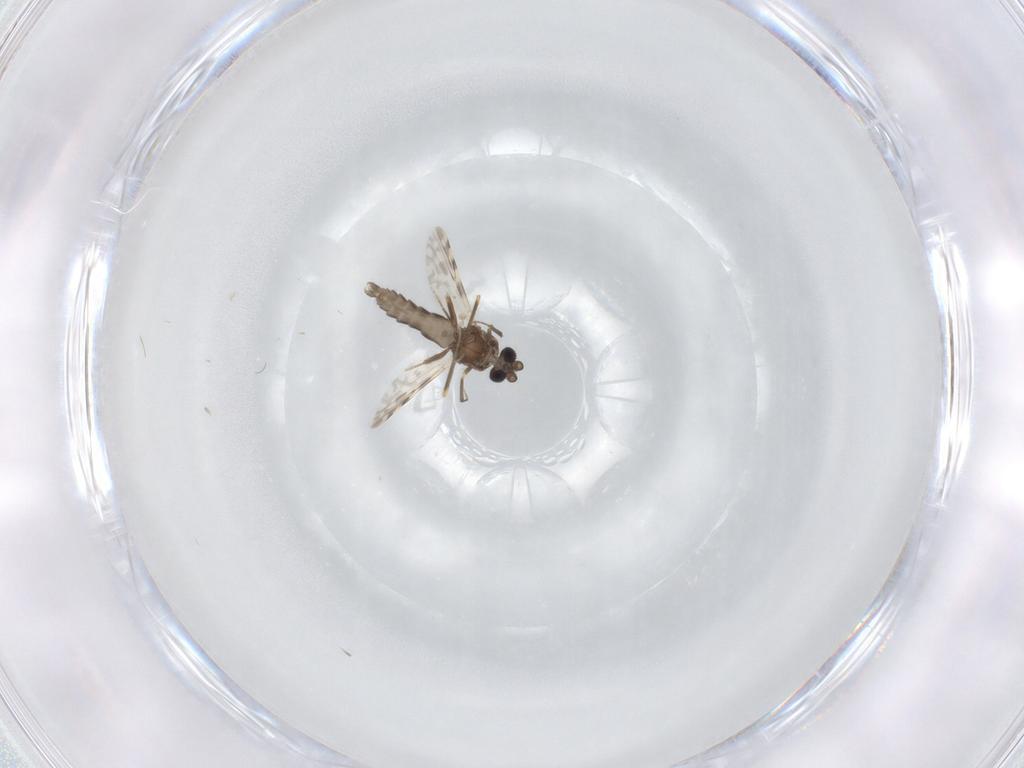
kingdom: Animalia
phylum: Arthropoda
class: Insecta
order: Diptera
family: Ceratopogonidae
